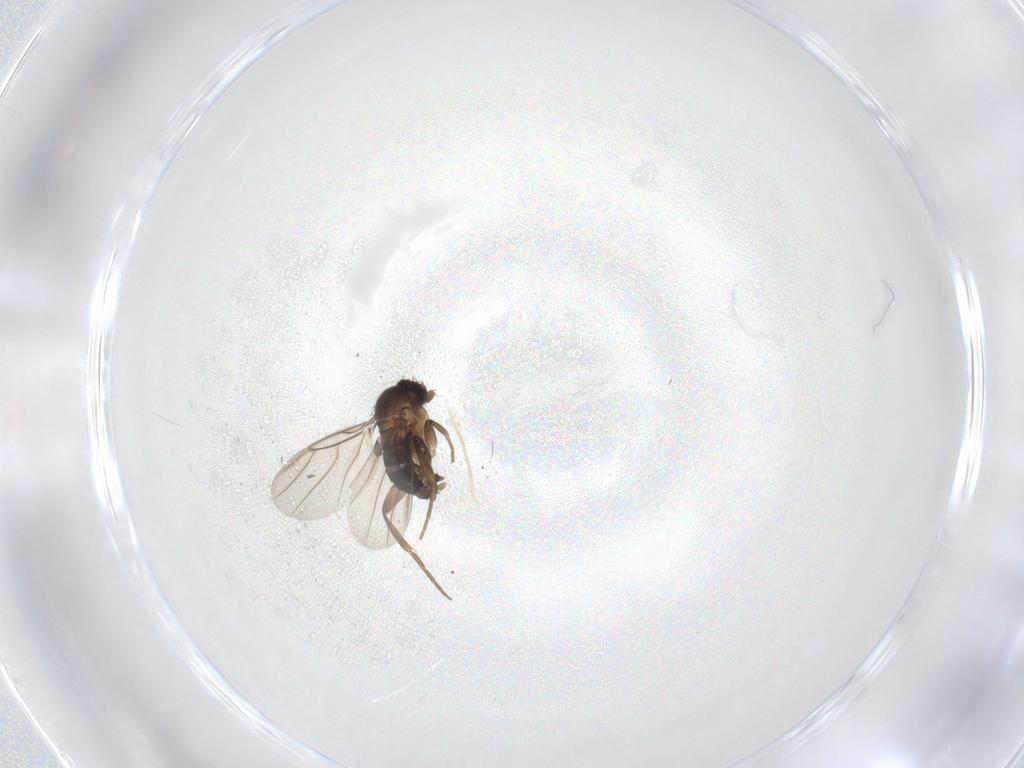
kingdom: Animalia
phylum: Arthropoda
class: Insecta
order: Diptera
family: Phoridae
